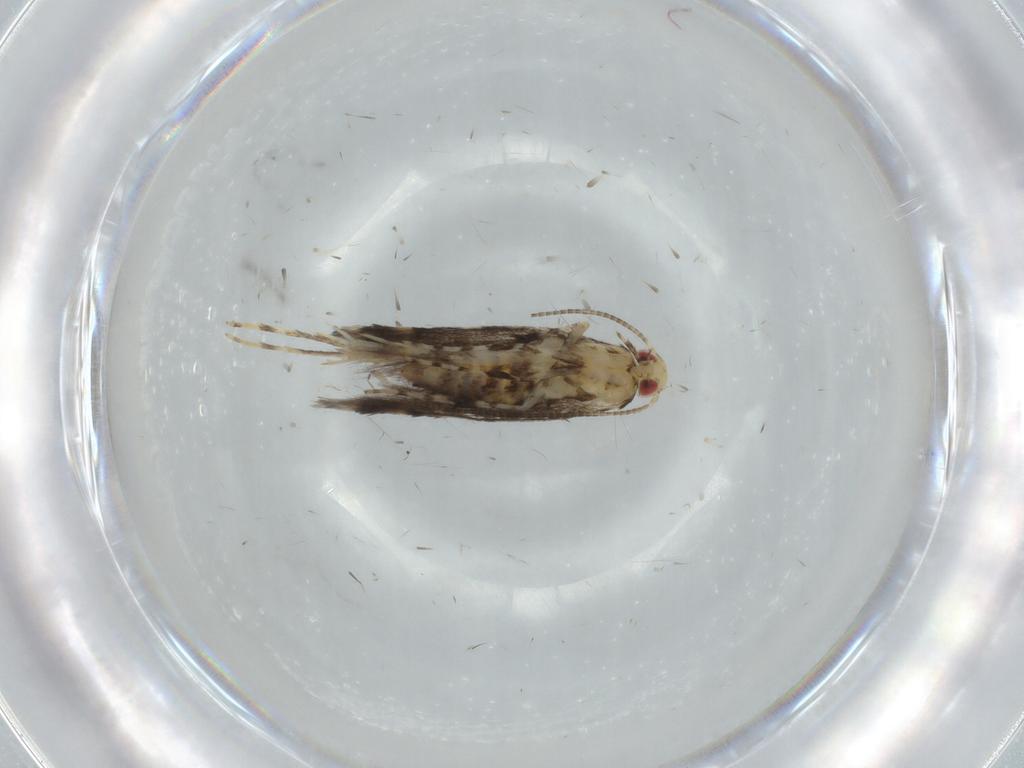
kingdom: Animalia
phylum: Arthropoda
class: Insecta
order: Lepidoptera
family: Gracillariidae
